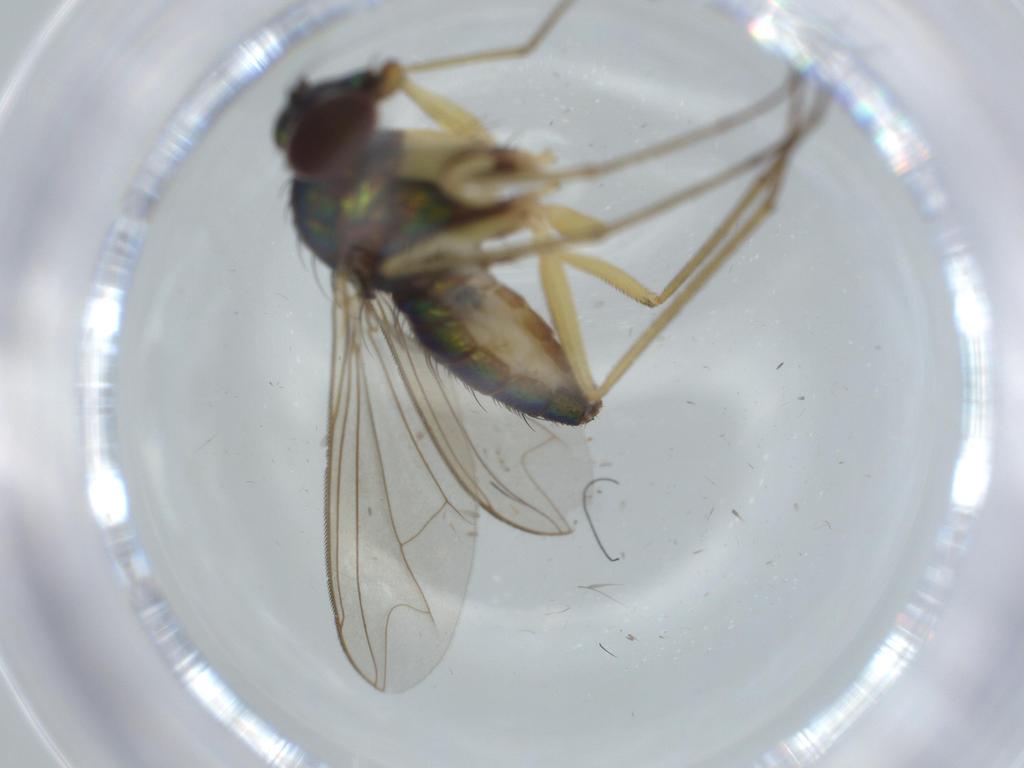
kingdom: Animalia
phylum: Arthropoda
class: Insecta
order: Diptera
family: Dolichopodidae
